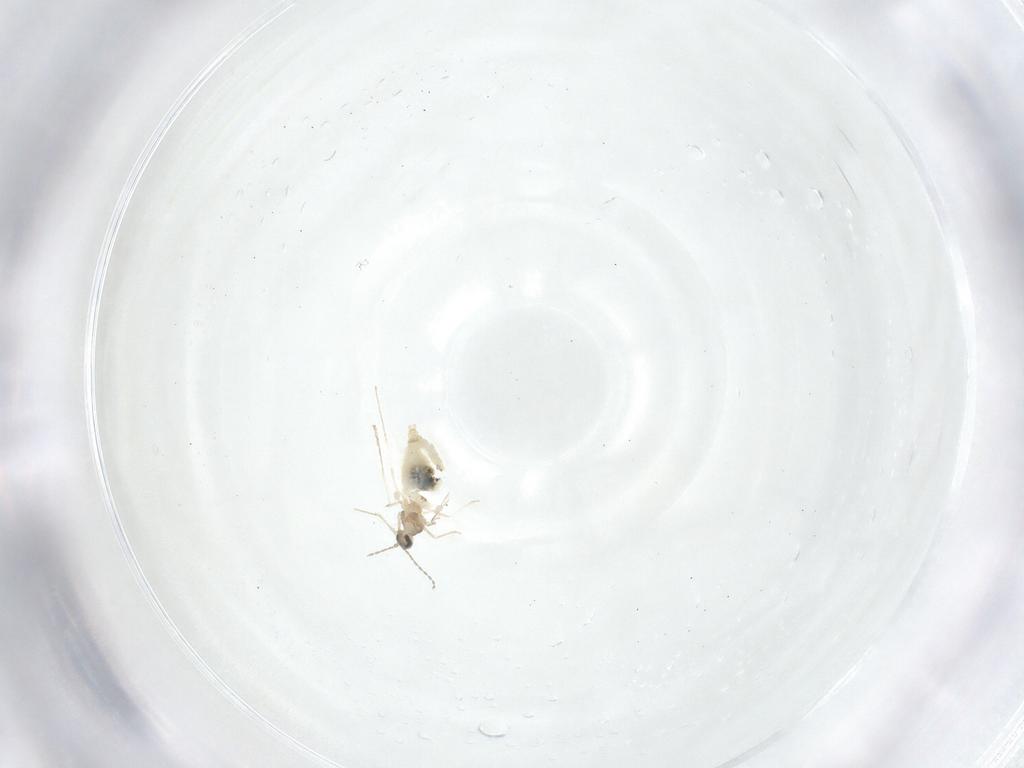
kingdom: Animalia
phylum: Arthropoda
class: Insecta
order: Diptera
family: Cecidomyiidae
